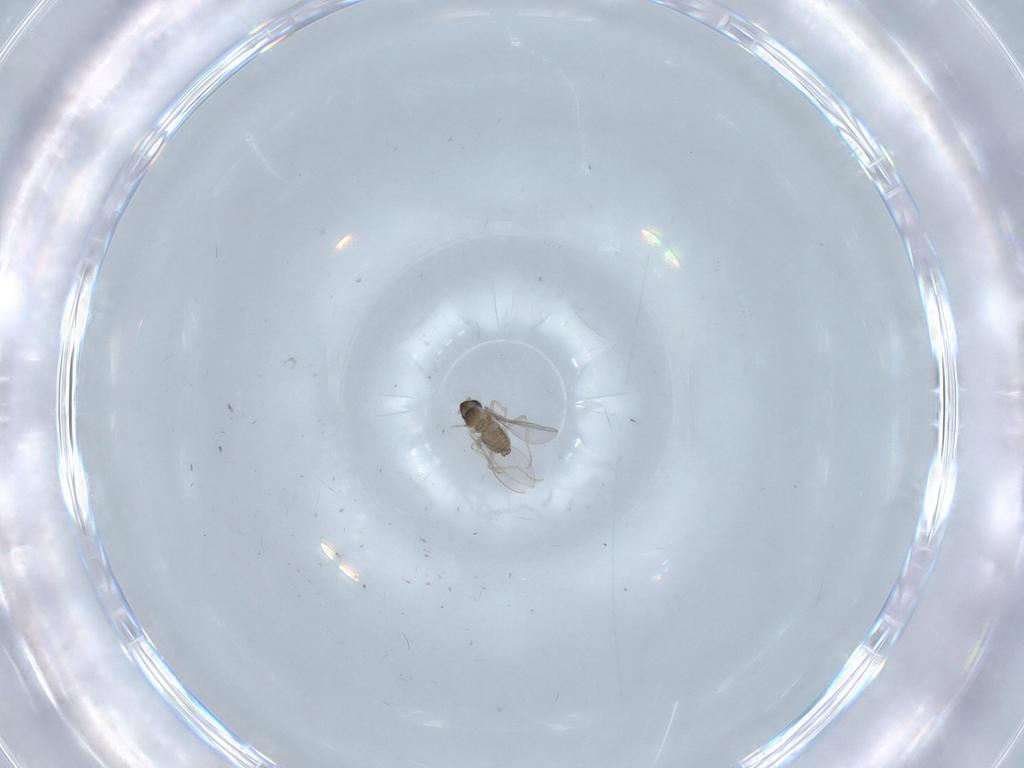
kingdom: Animalia
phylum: Arthropoda
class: Insecta
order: Diptera
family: Cecidomyiidae
